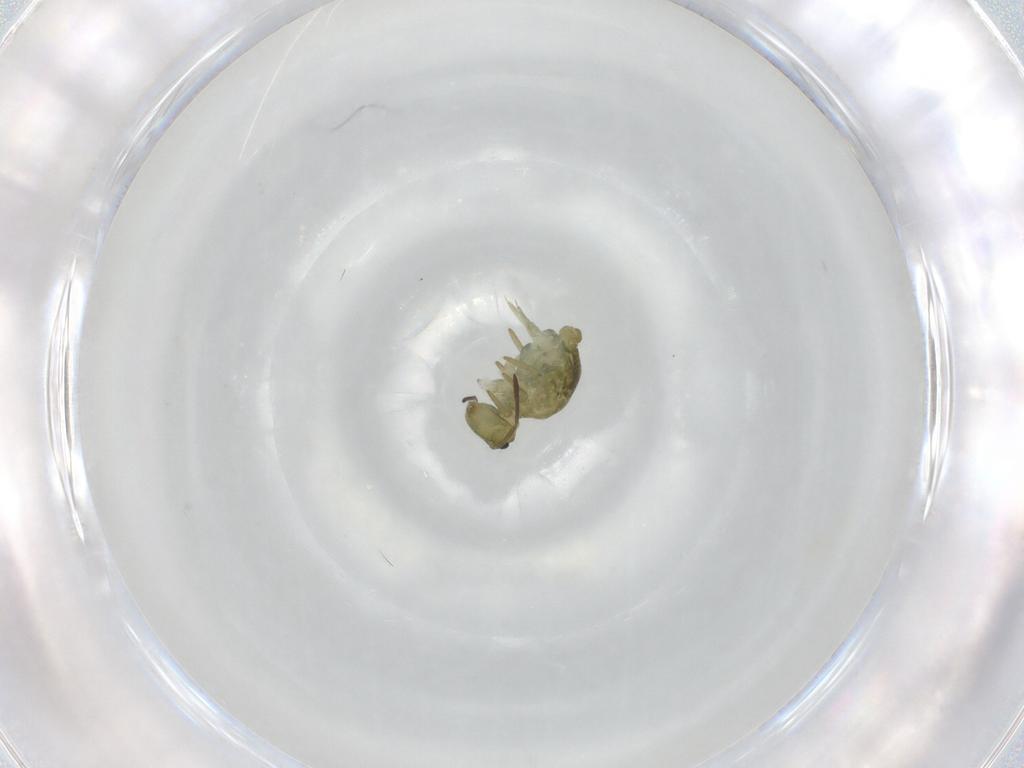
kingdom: Animalia
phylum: Arthropoda
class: Collembola
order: Symphypleona
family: Sminthuridae
